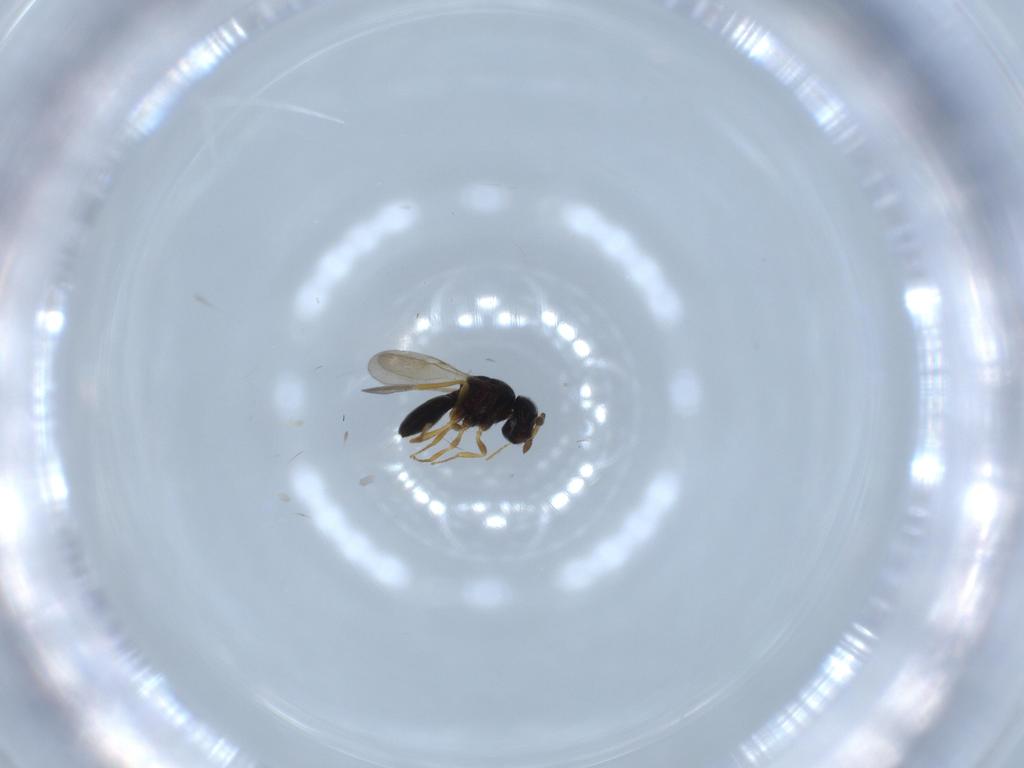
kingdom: Animalia
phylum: Arthropoda
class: Insecta
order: Hymenoptera
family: Scelionidae
